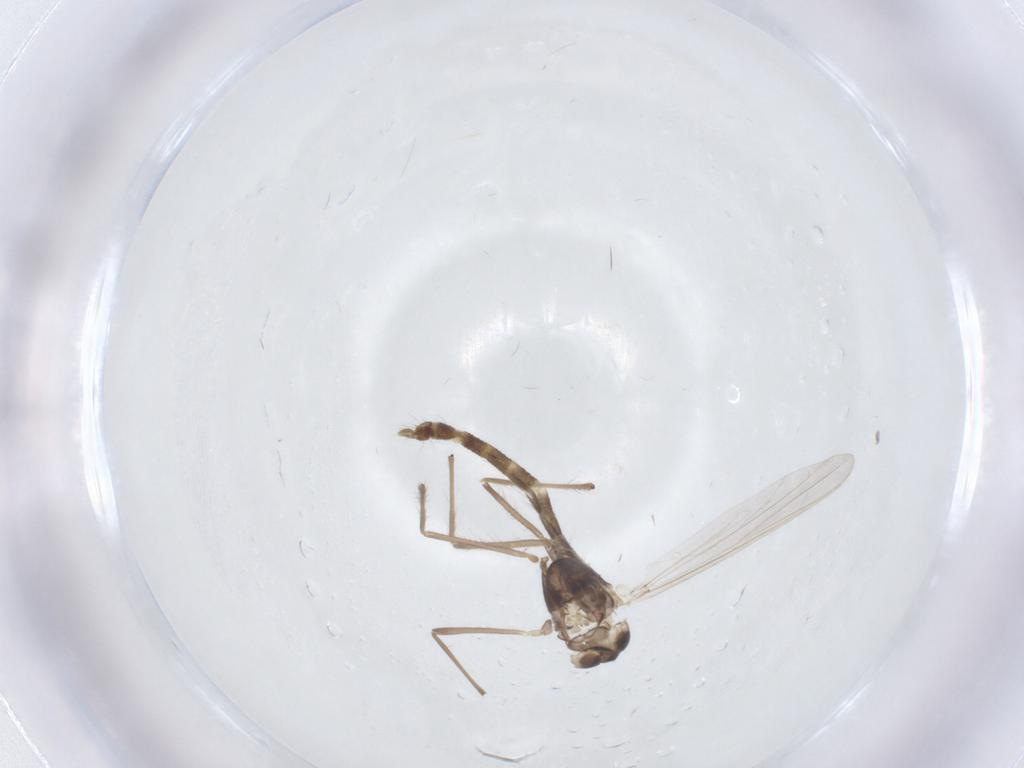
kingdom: Animalia
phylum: Arthropoda
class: Insecta
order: Diptera
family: Chironomidae
